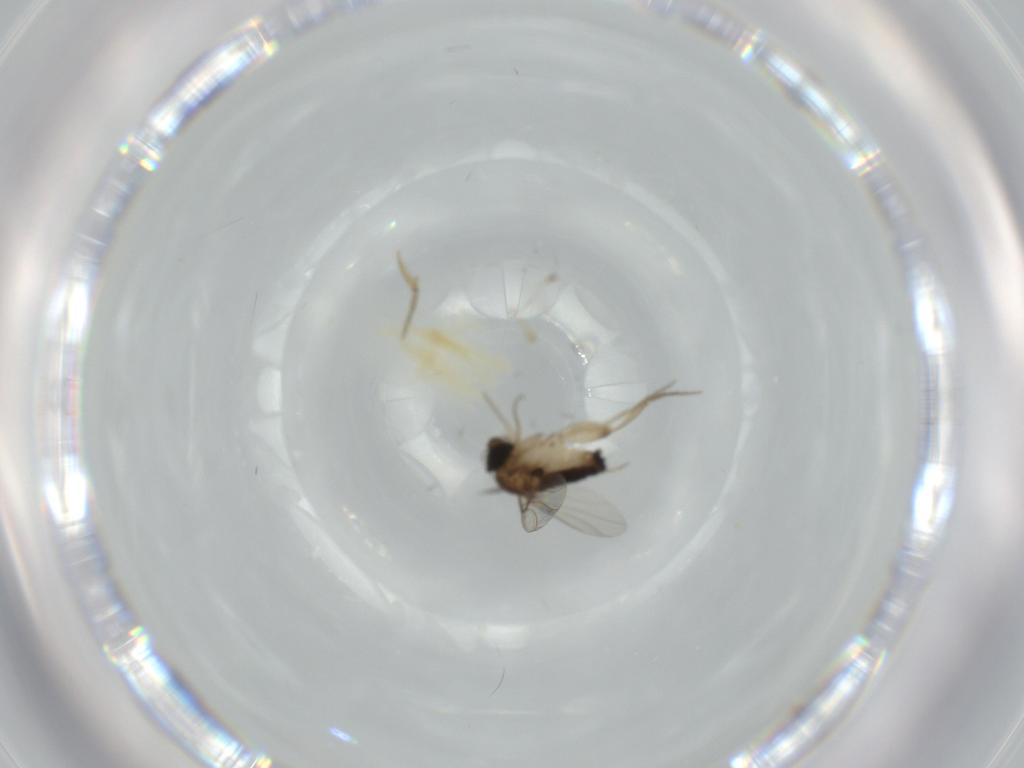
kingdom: Animalia
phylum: Arthropoda
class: Insecta
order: Diptera
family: Phoridae
